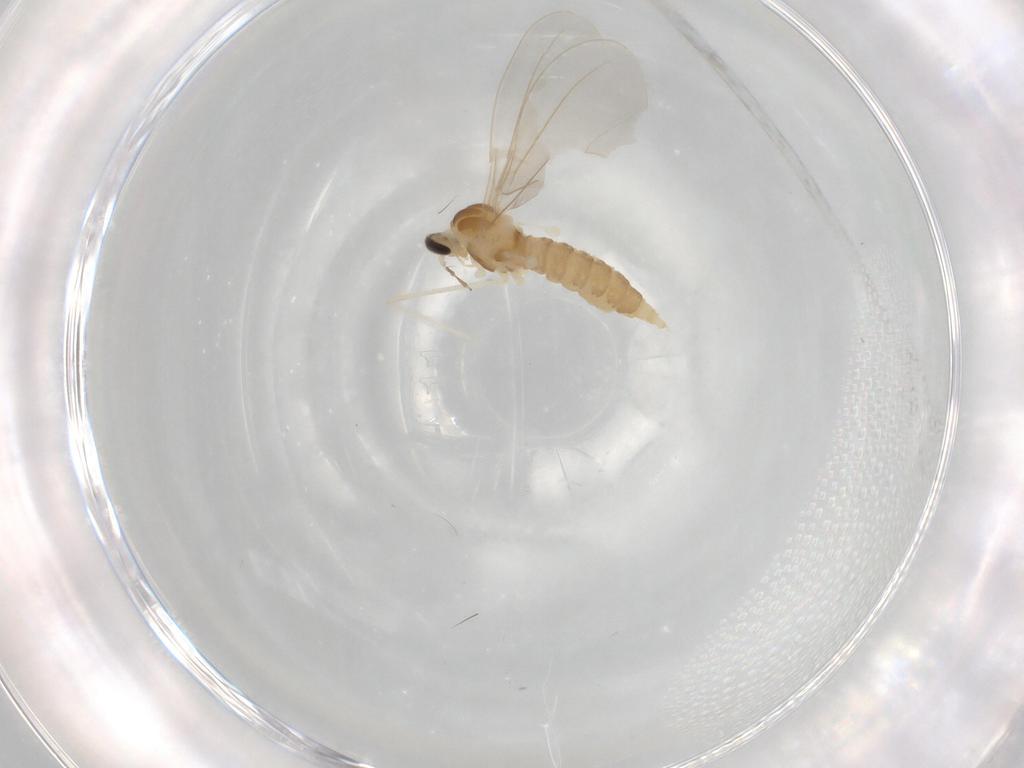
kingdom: Animalia
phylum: Arthropoda
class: Insecta
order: Diptera
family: Cecidomyiidae
